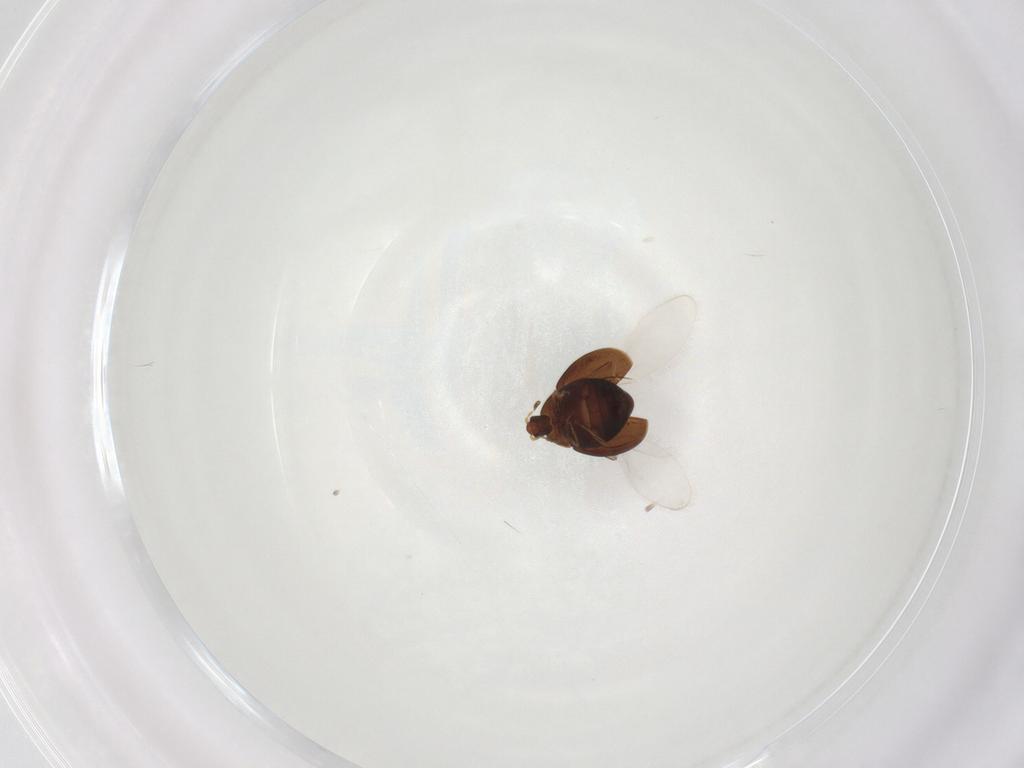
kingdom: Animalia
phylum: Arthropoda
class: Insecta
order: Coleoptera
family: Corylophidae
